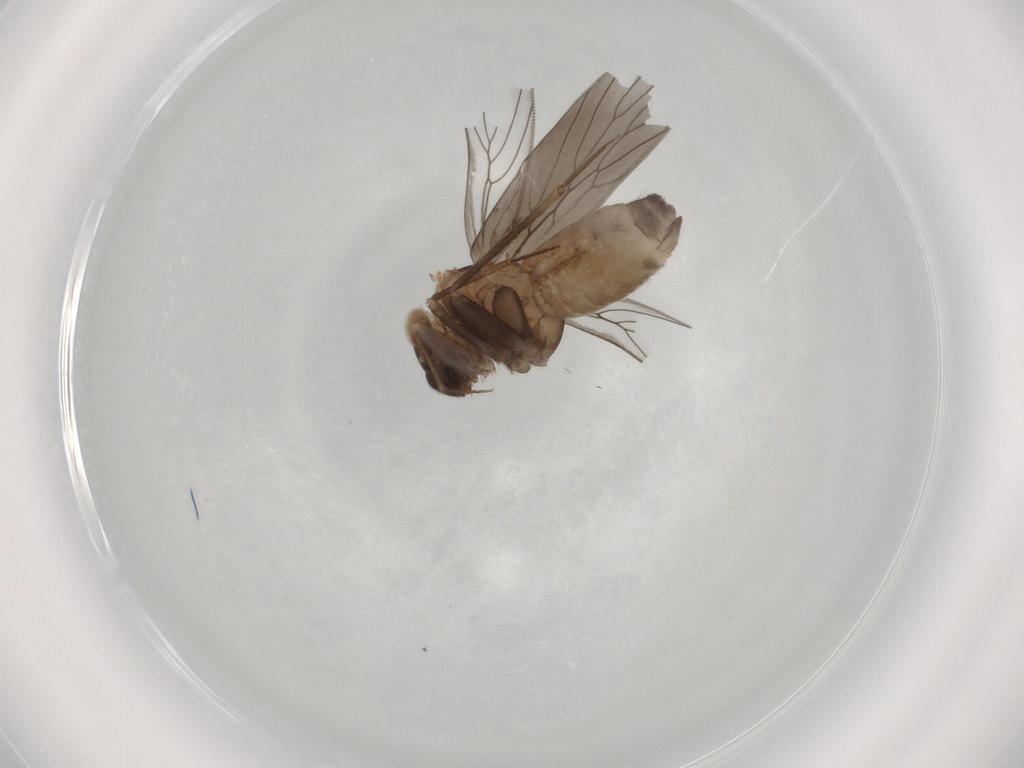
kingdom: Animalia
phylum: Arthropoda
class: Insecta
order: Psocodea
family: Lepidopsocidae
